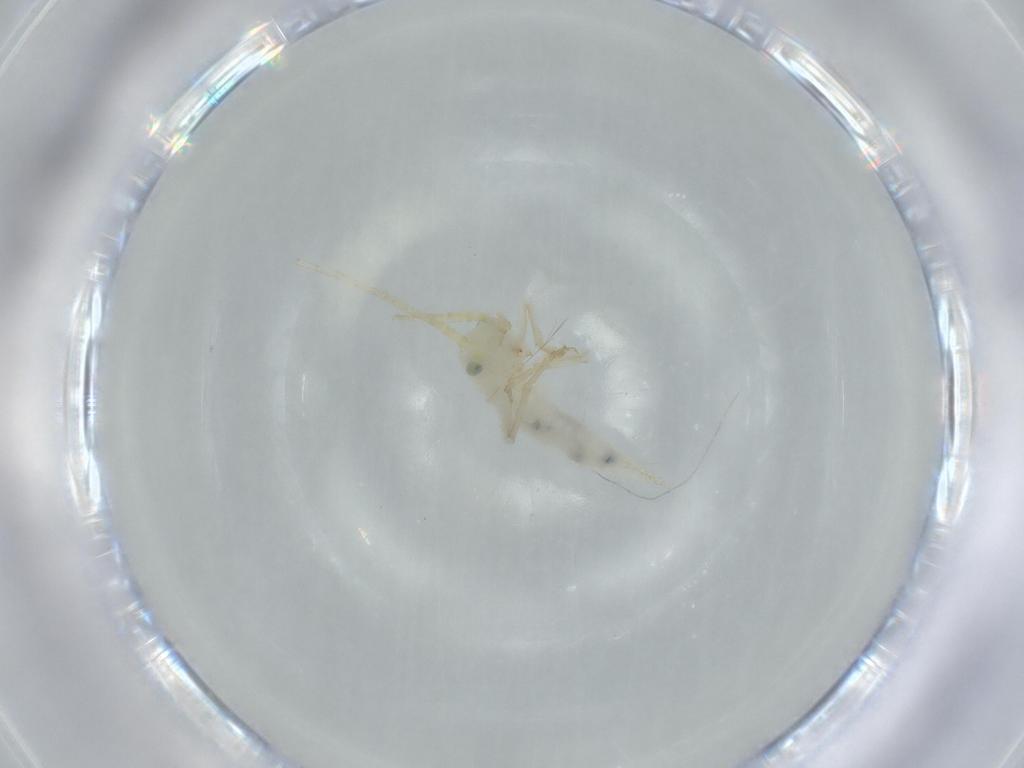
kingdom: Animalia
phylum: Arthropoda
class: Insecta
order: Orthoptera
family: Trigonidiidae
